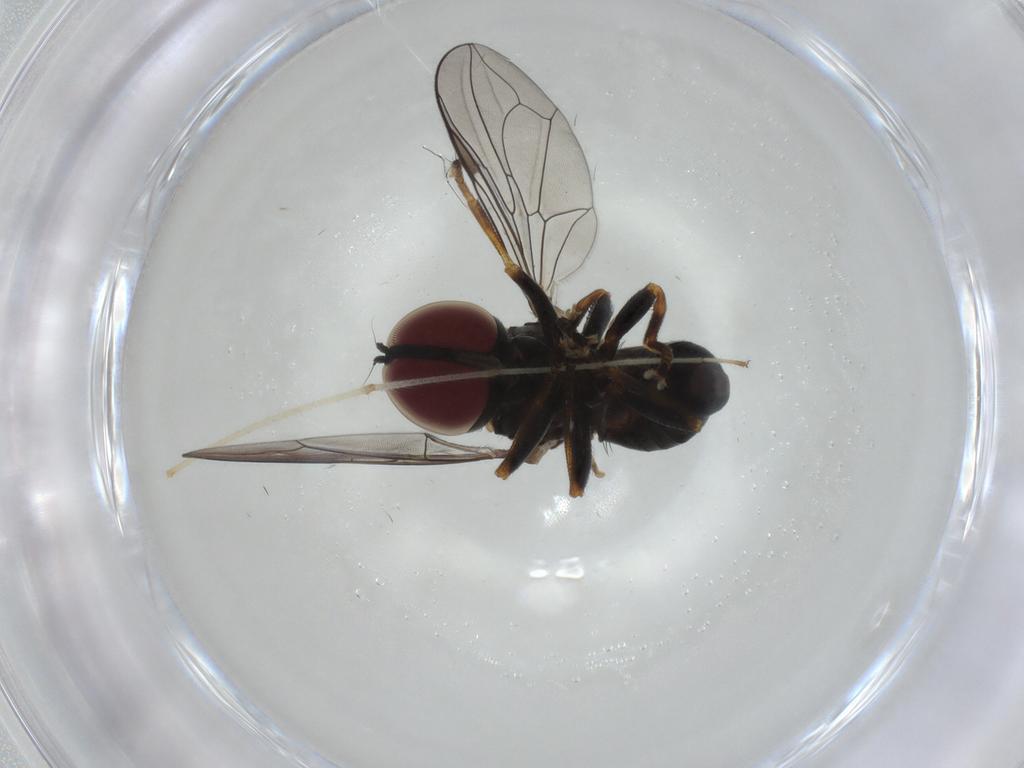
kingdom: Animalia
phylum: Arthropoda
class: Insecta
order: Diptera
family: Pipunculidae
